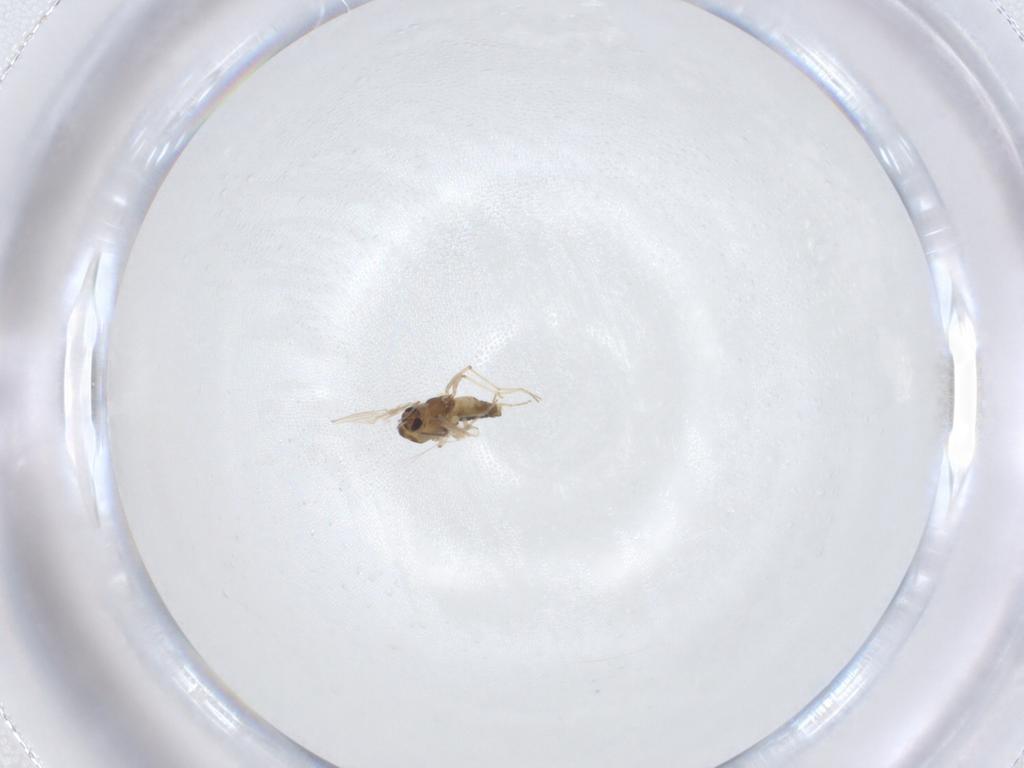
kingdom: Animalia
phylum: Arthropoda
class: Insecta
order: Diptera
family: Chironomidae
